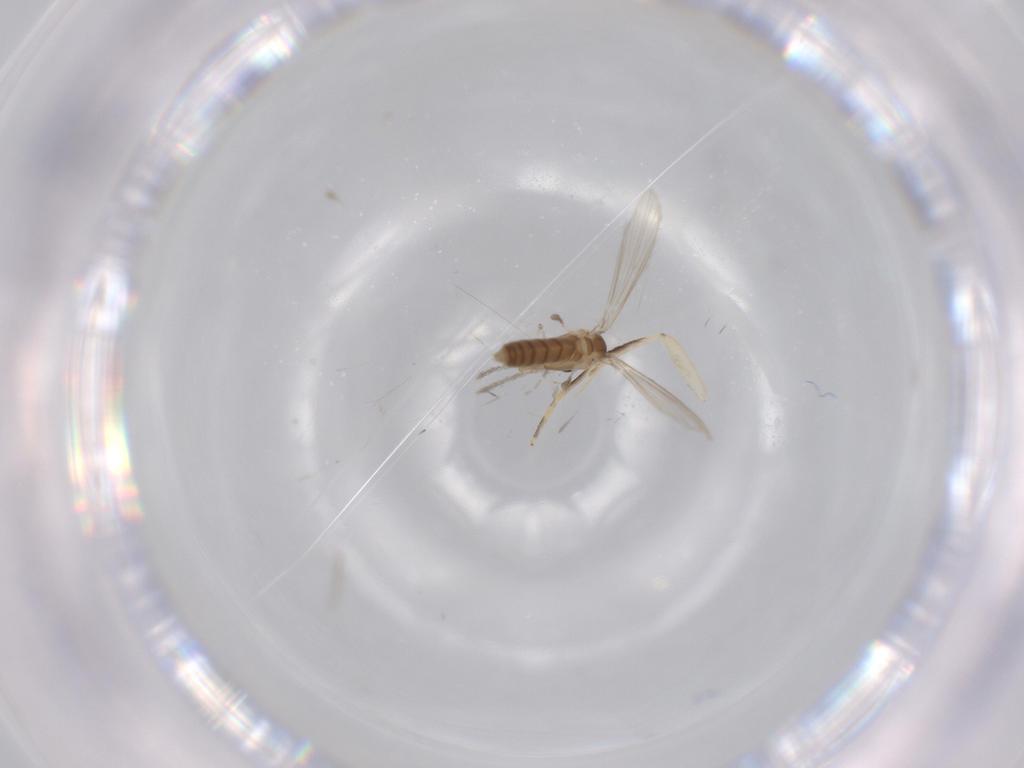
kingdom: Animalia
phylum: Arthropoda
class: Insecta
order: Diptera
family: Psychodidae
